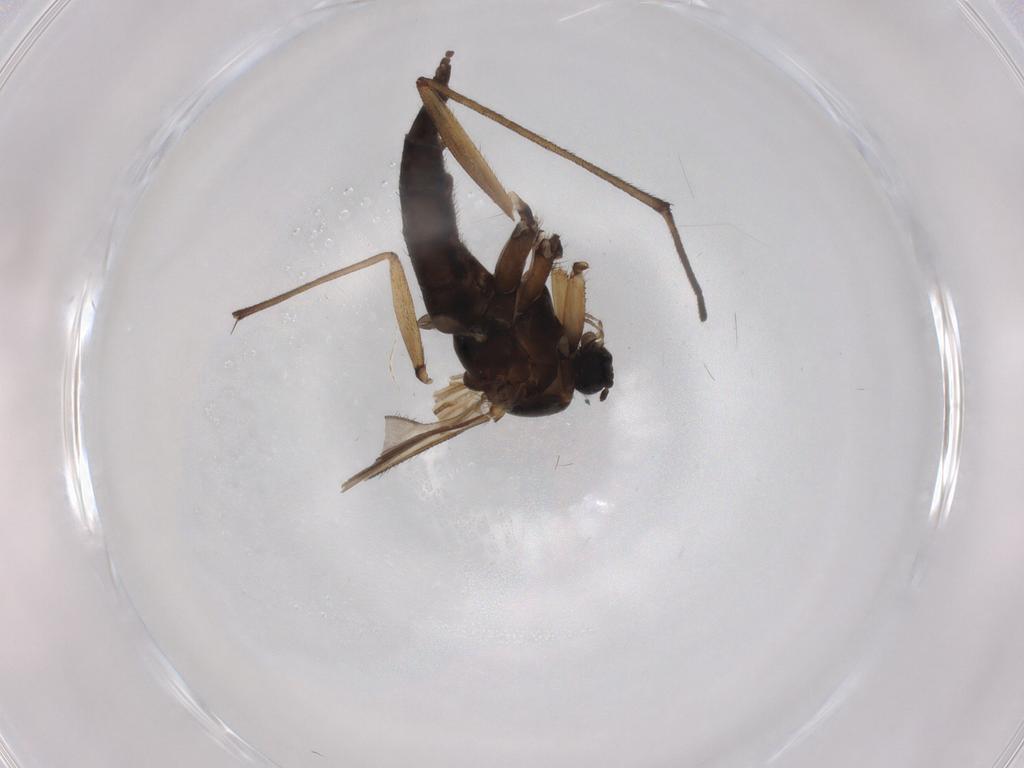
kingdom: Animalia
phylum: Arthropoda
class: Insecta
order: Diptera
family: Sciaridae
